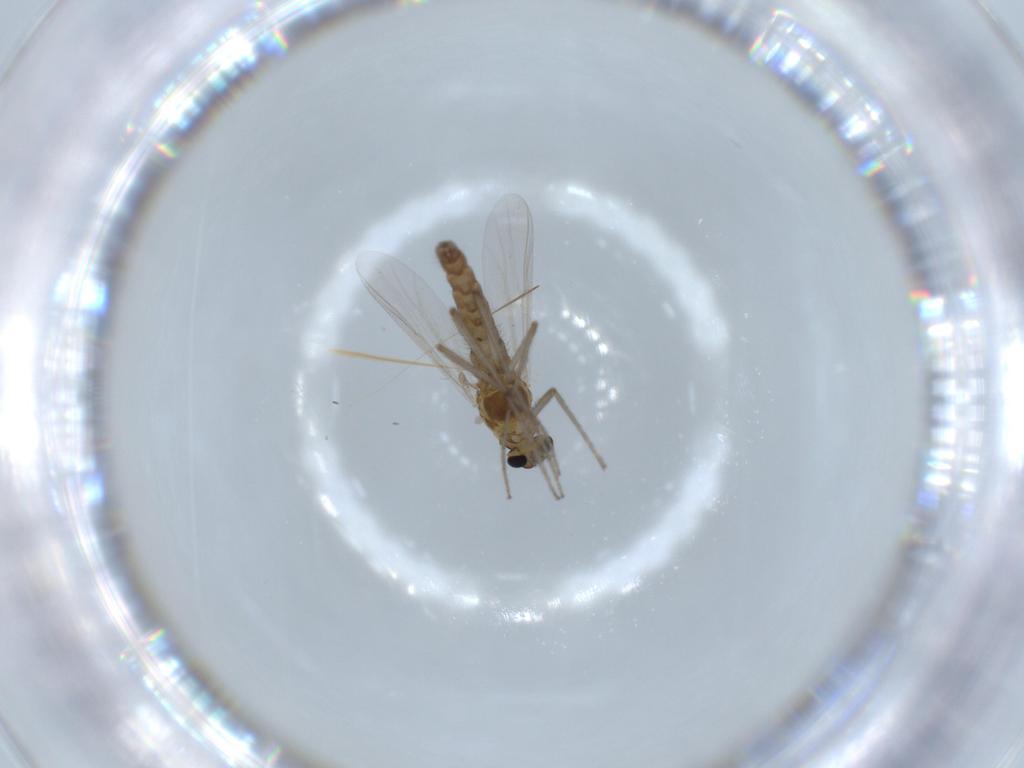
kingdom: Animalia
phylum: Arthropoda
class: Insecta
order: Diptera
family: Chironomidae
